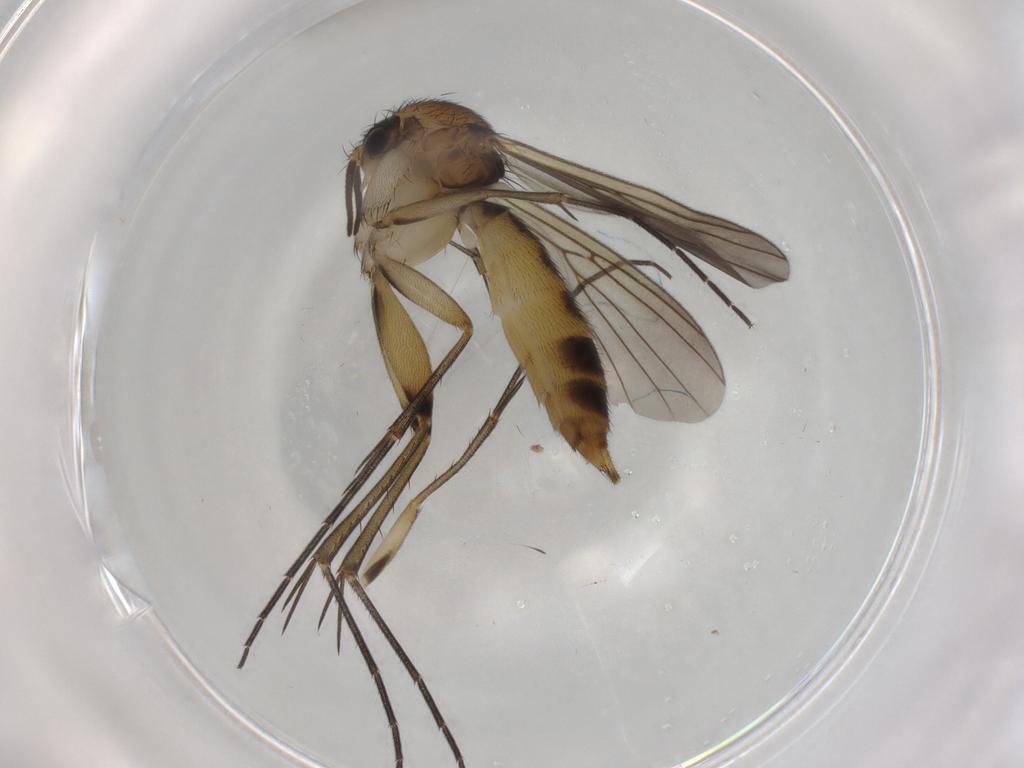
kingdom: Animalia
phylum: Arthropoda
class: Insecta
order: Diptera
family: Mycetophilidae
